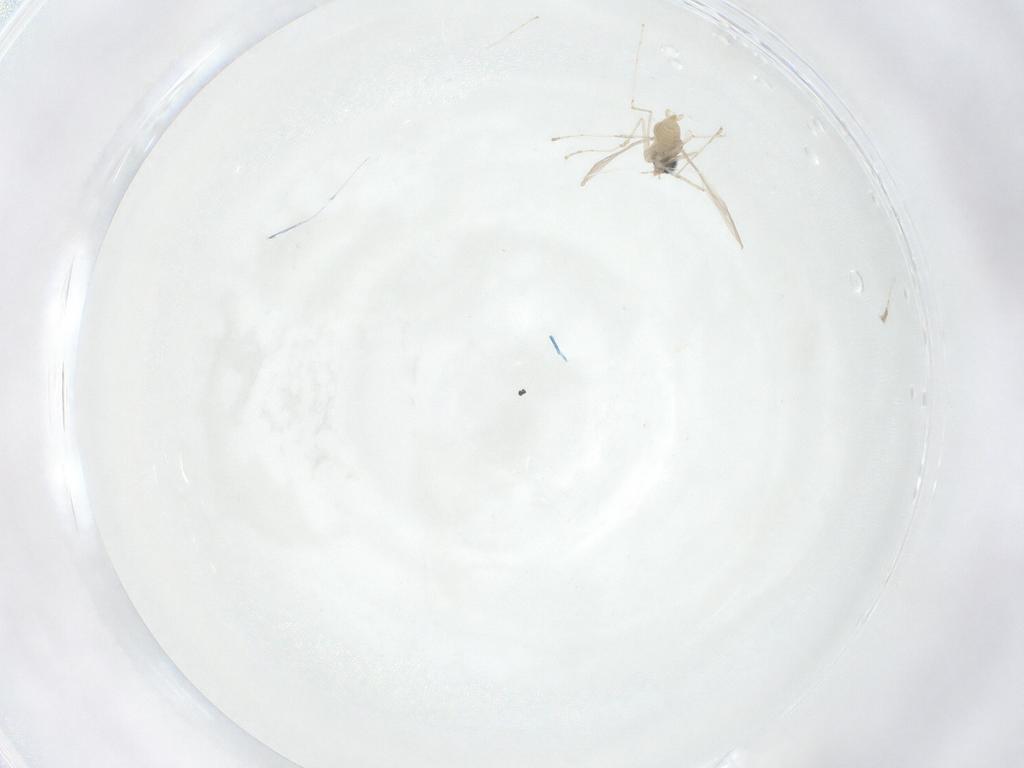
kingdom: Animalia
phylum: Arthropoda
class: Insecta
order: Diptera
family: Cecidomyiidae
